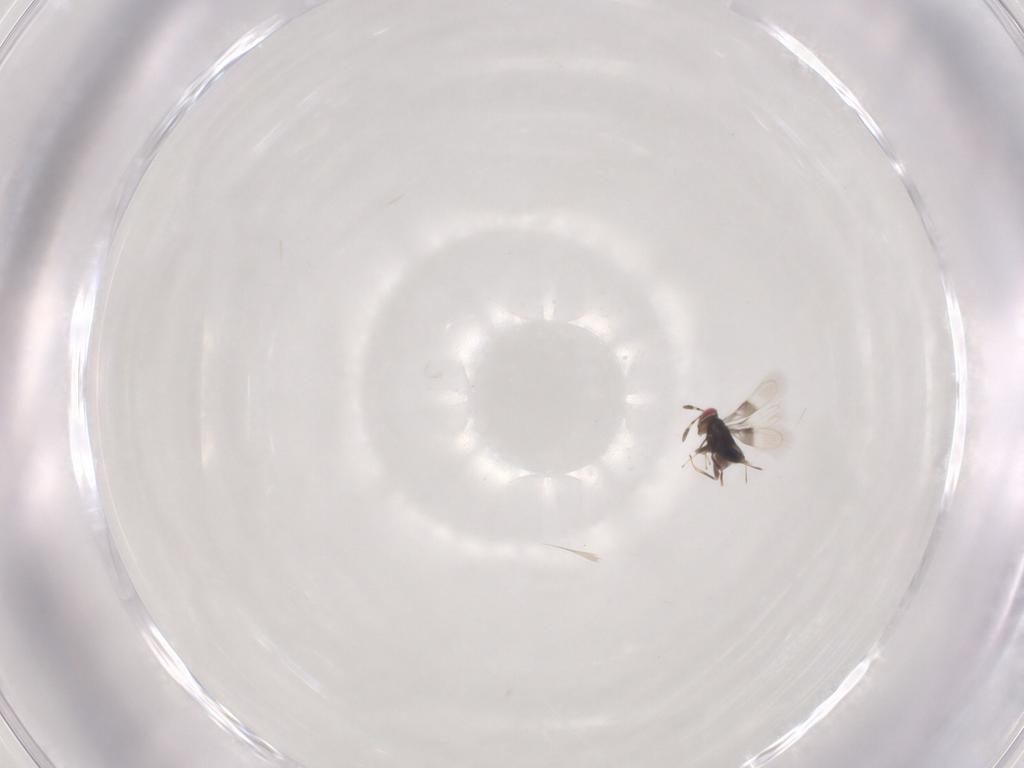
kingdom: Animalia
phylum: Arthropoda
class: Insecta
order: Hymenoptera
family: Azotidae
